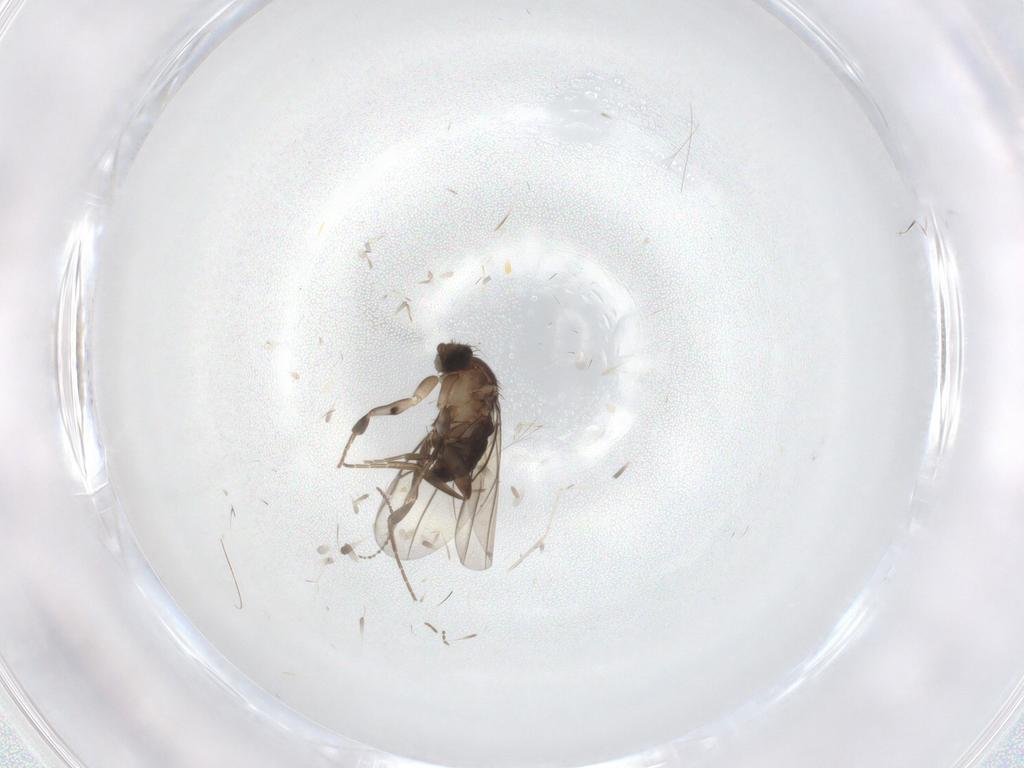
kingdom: Animalia
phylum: Arthropoda
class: Insecta
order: Diptera
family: Phoridae
